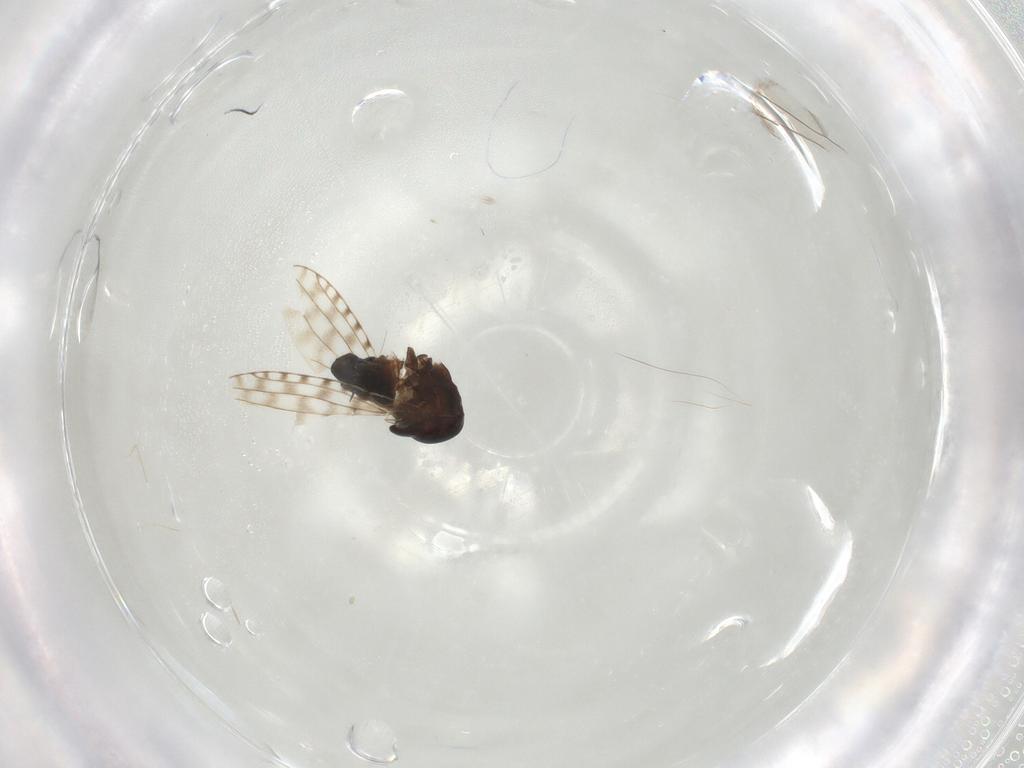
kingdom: Animalia
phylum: Arthropoda
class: Insecta
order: Diptera
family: Ephydridae
